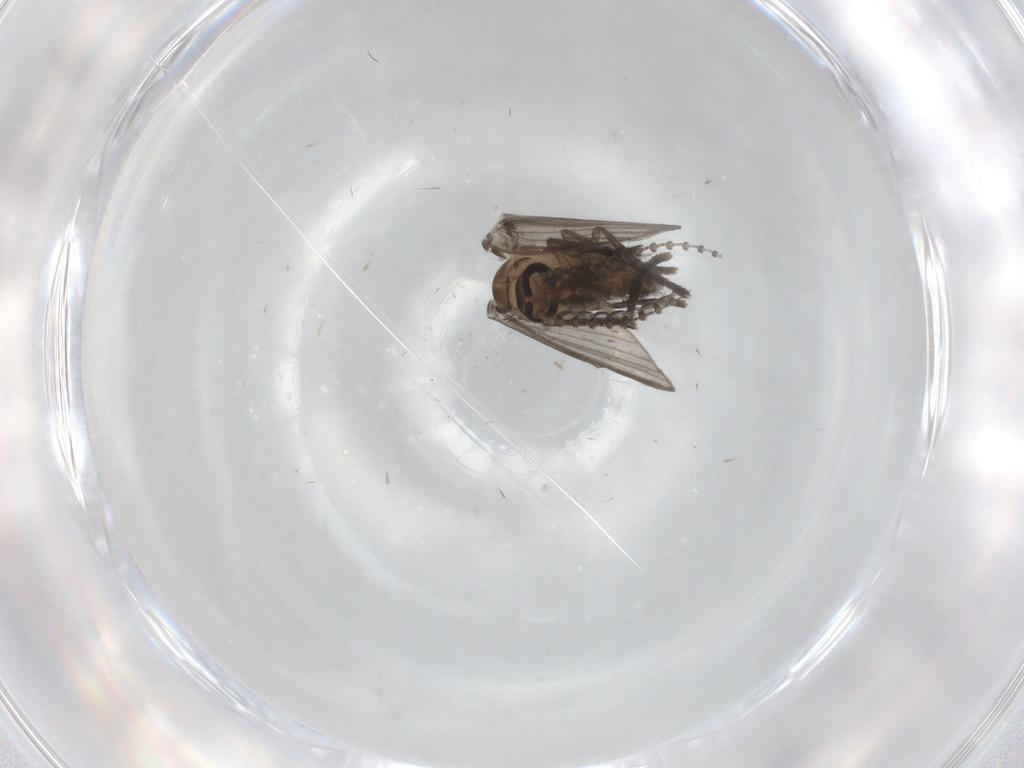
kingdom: Animalia
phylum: Arthropoda
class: Insecta
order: Diptera
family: Psychodidae
